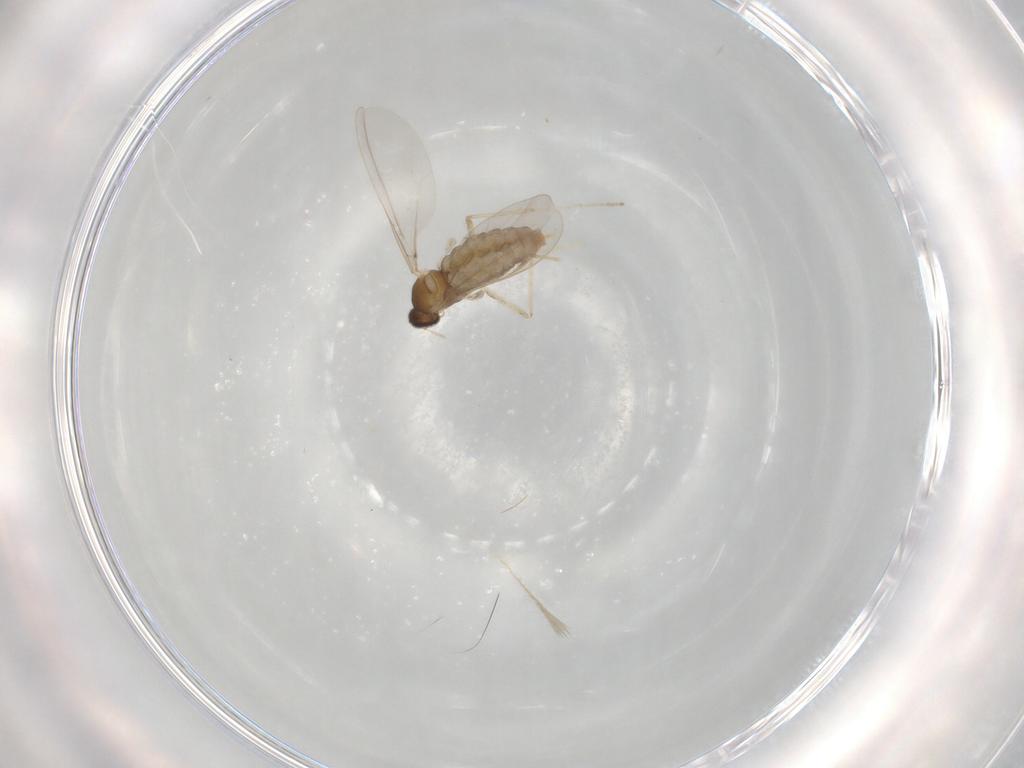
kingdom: Animalia
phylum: Arthropoda
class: Insecta
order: Diptera
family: Cecidomyiidae
